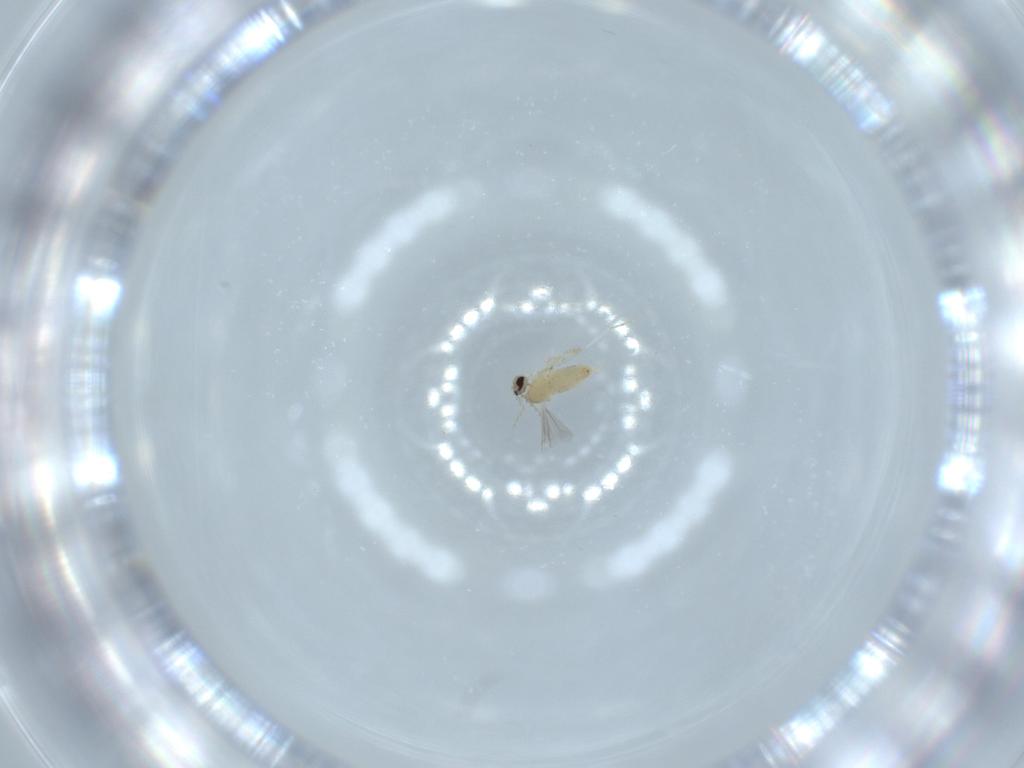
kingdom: Animalia
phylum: Arthropoda
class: Insecta
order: Diptera
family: Cecidomyiidae
